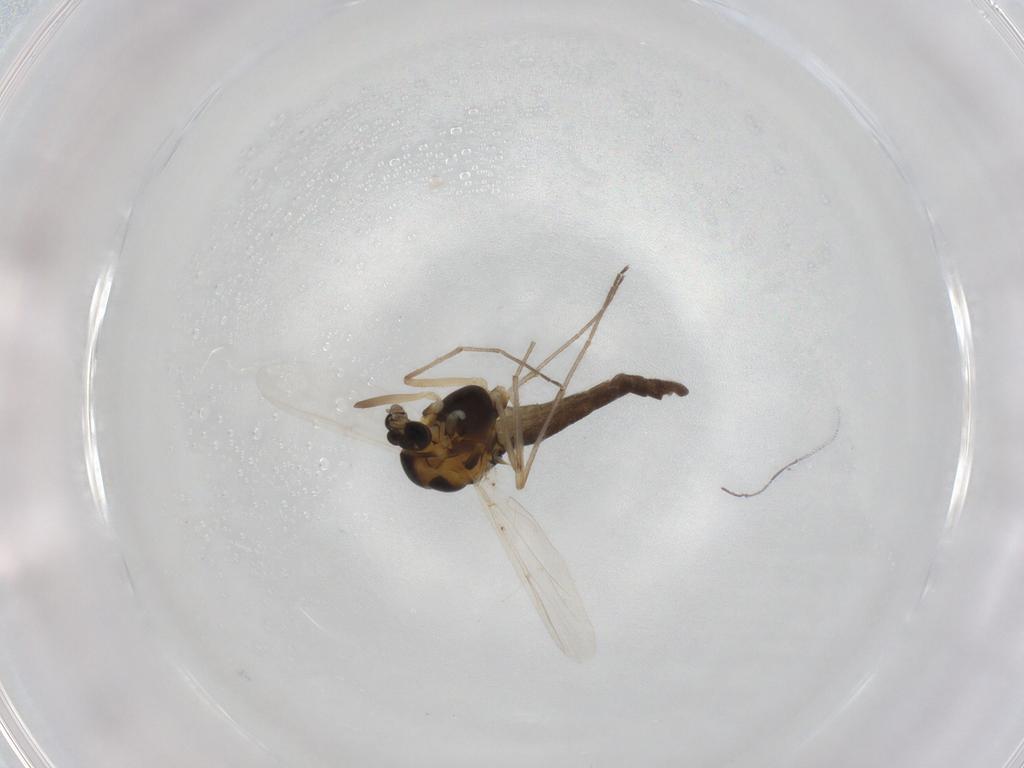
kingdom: Animalia
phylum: Arthropoda
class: Insecta
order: Diptera
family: Chironomidae
